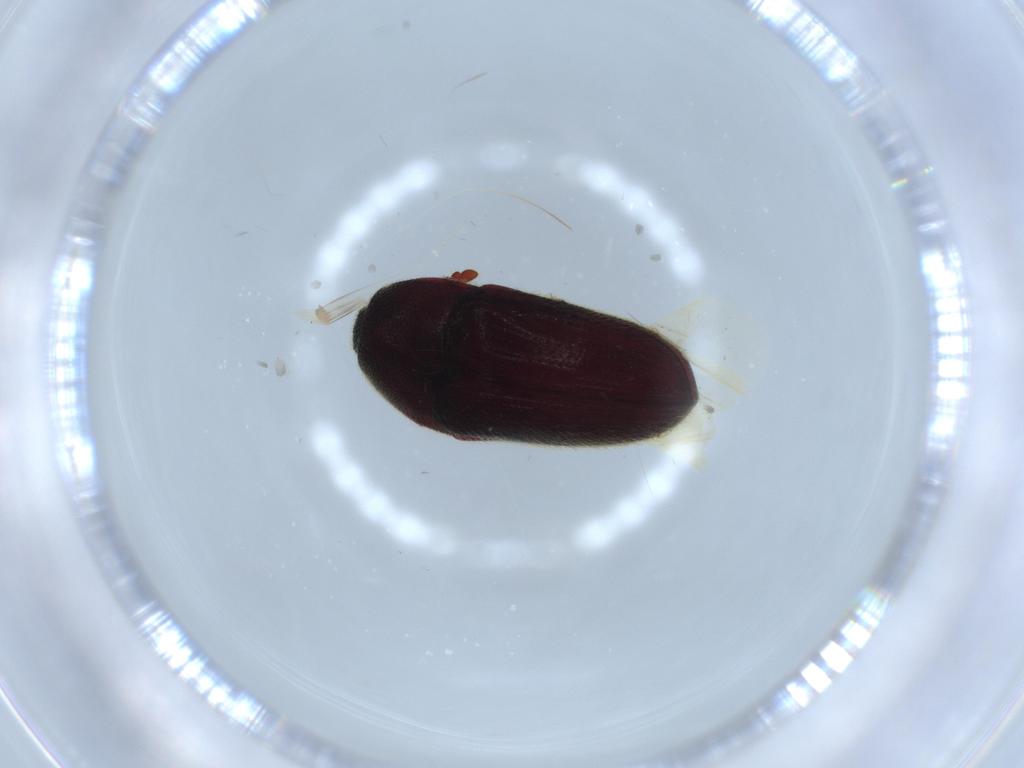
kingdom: Animalia
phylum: Arthropoda
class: Insecta
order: Coleoptera
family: Throscidae
